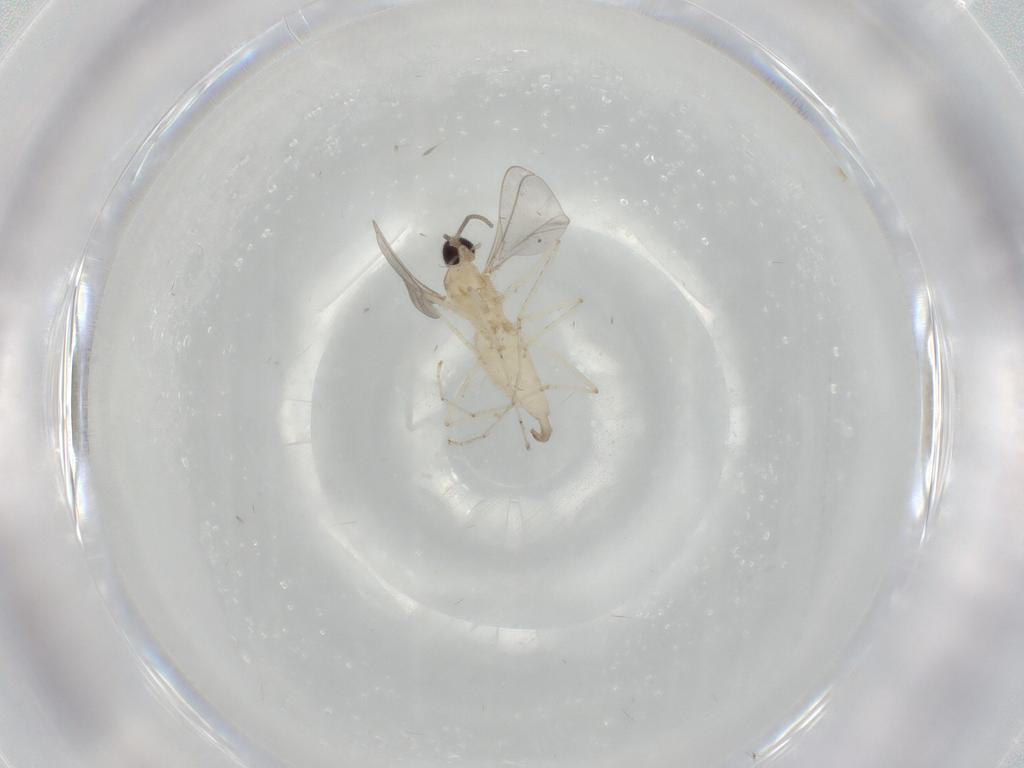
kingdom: Animalia
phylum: Arthropoda
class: Insecta
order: Diptera
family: Cecidomyiidae
